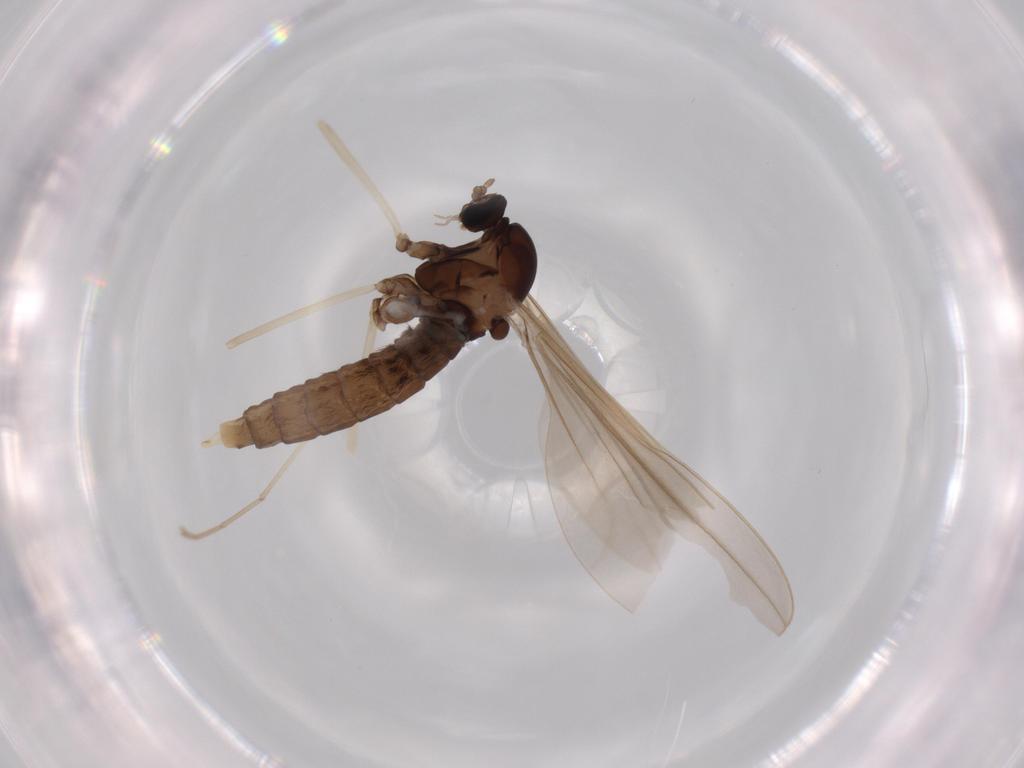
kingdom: Animalia
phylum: Arthropoda
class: Insecta
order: Diptera
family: Cecidomyiidae
